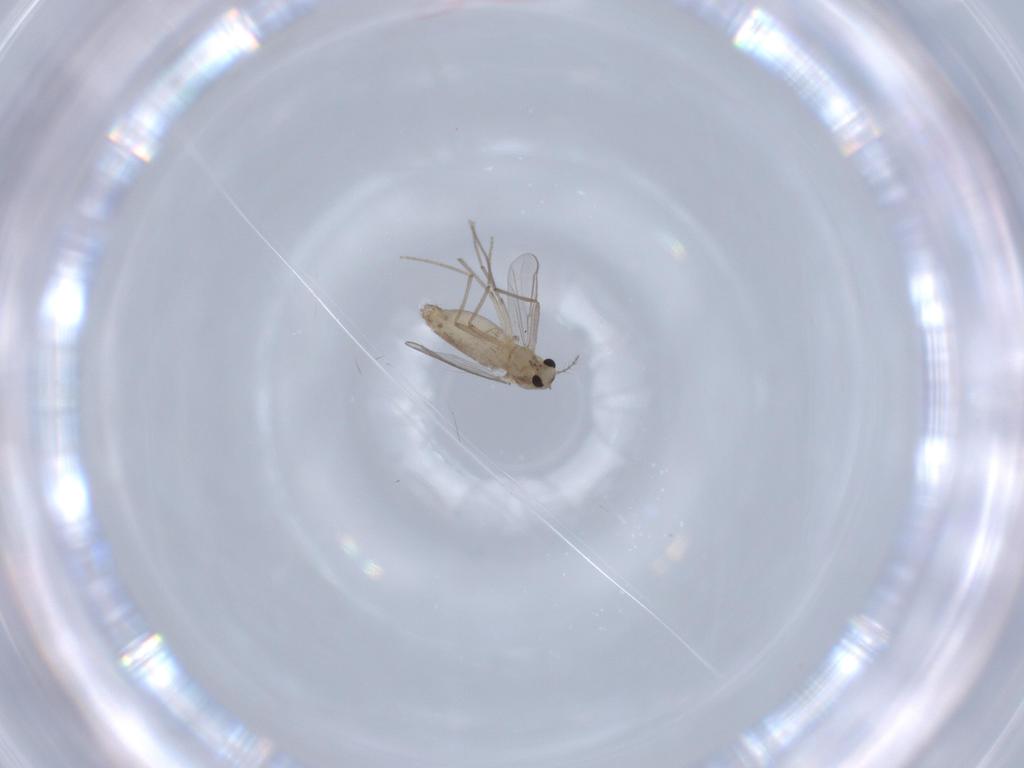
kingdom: Animalia
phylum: Arthropoda
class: Insecta
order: Diptera
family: Chironomidae
